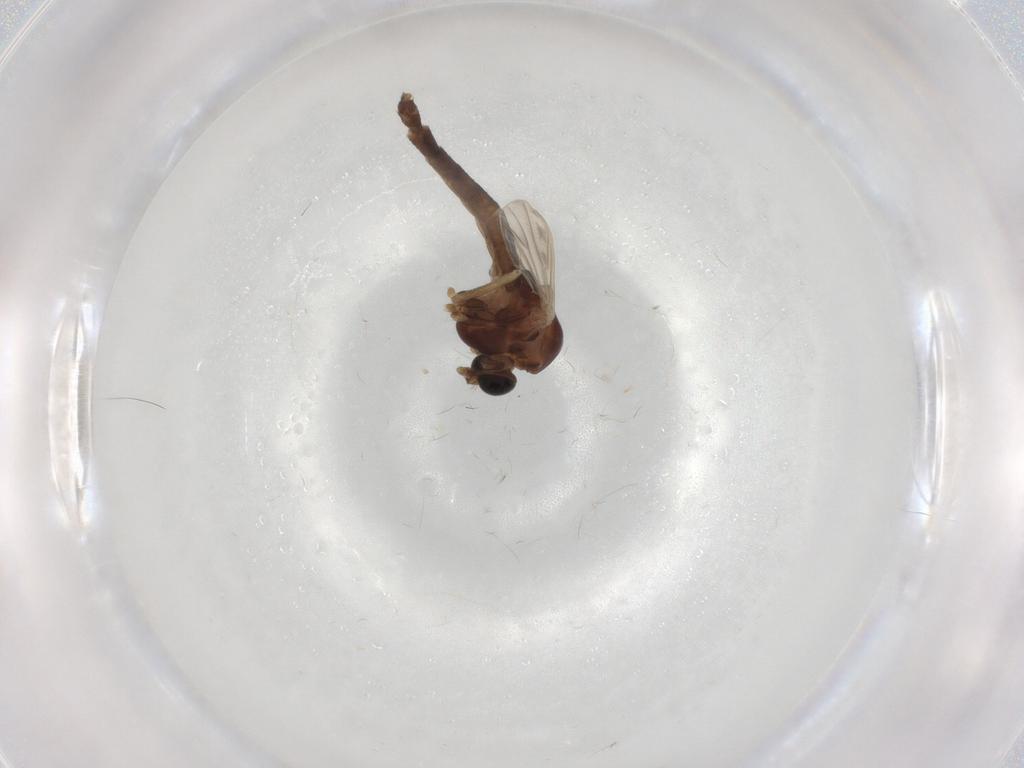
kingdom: Animalia
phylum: Arthropoda
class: Insecta
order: Diptera
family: Chironomidae
